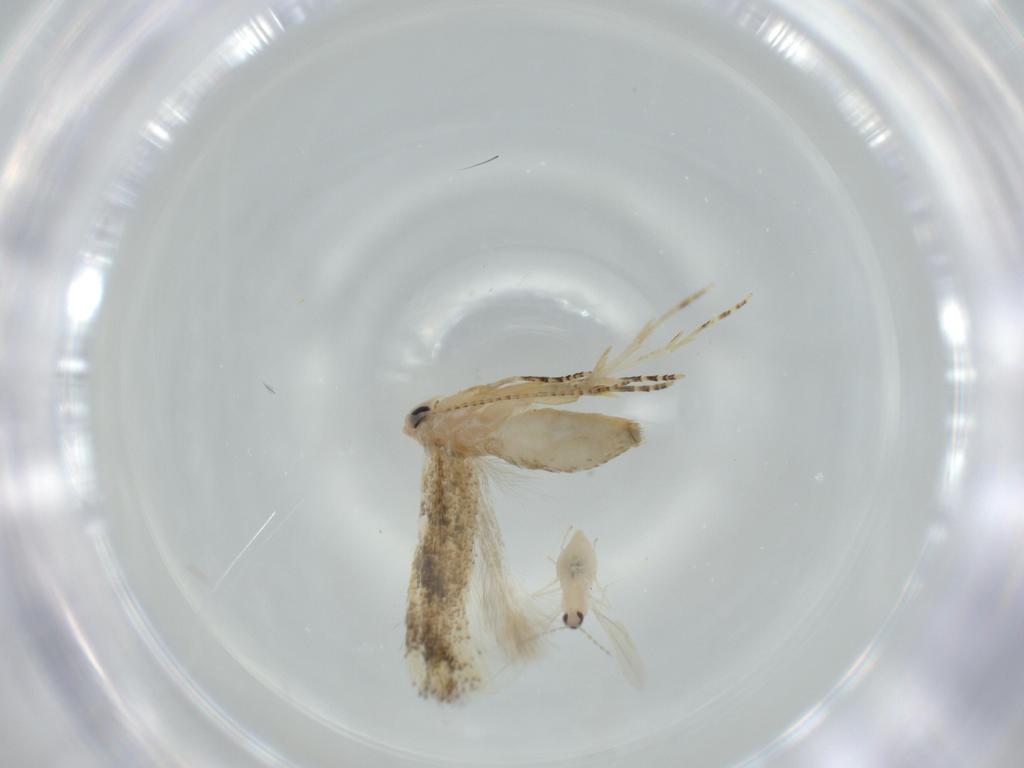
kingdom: Animalia
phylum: Arthropoda
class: Insecta
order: Lepidoptera
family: Bucculatricidae
